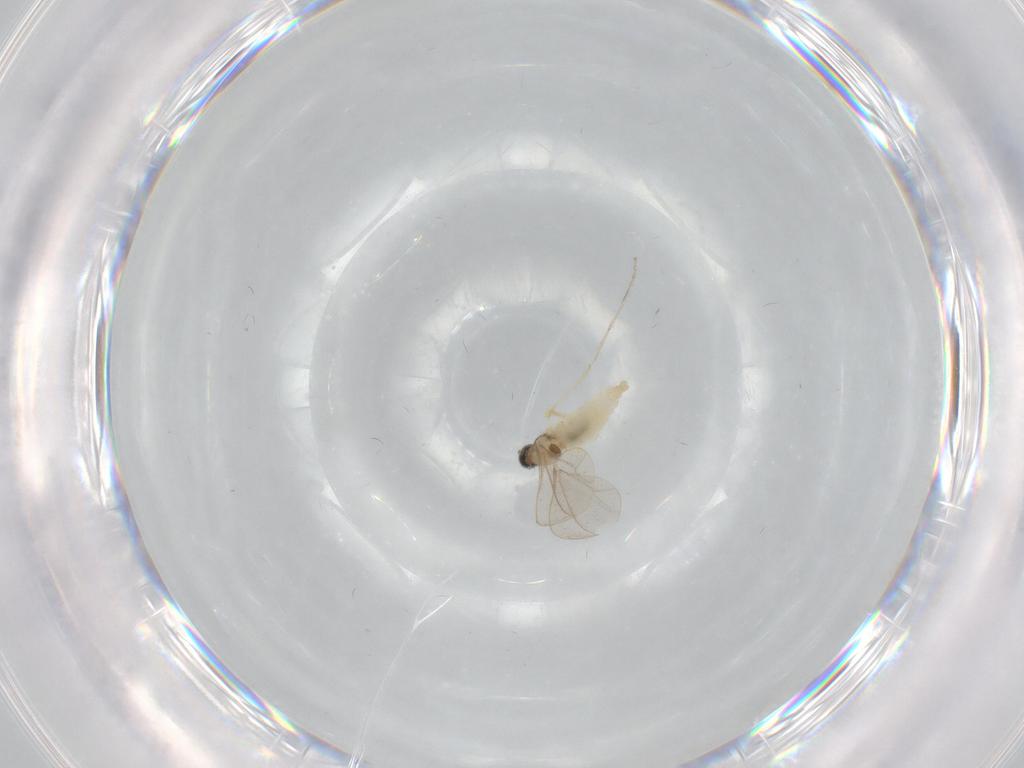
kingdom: Animalia
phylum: Arthropoda
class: Insecta
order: Diptera
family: Cecidomyiidae
